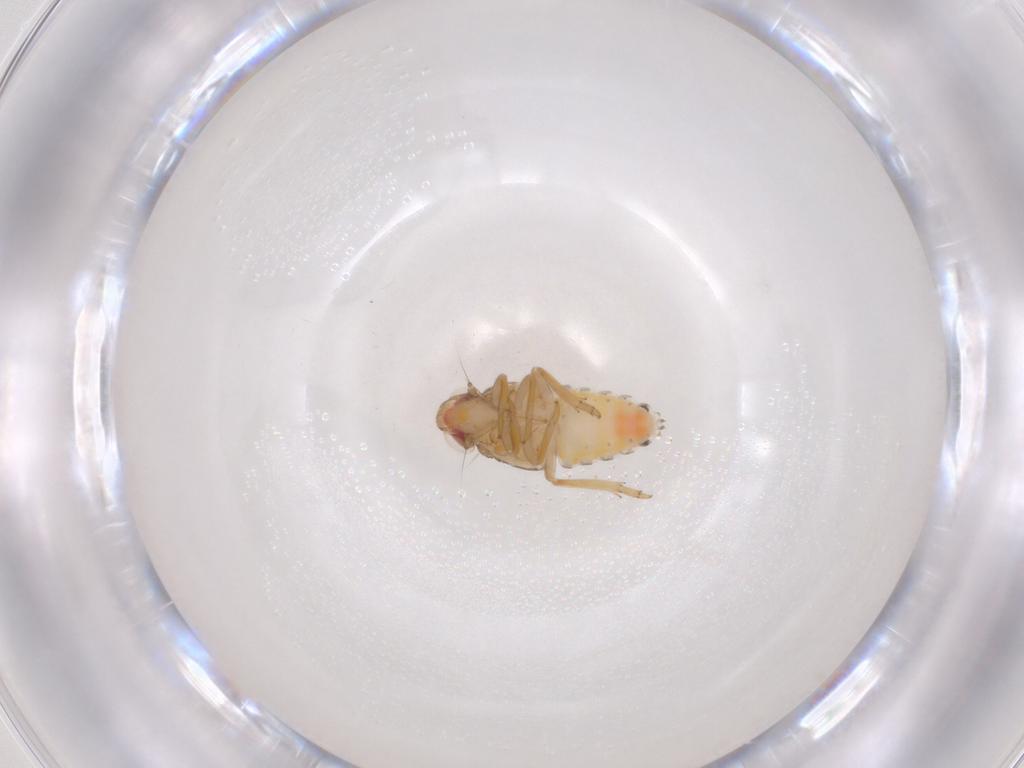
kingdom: Animalia
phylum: Arthropoda
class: Insecta
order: Hemiptera
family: Fulgoroidea_incertae_sedis
